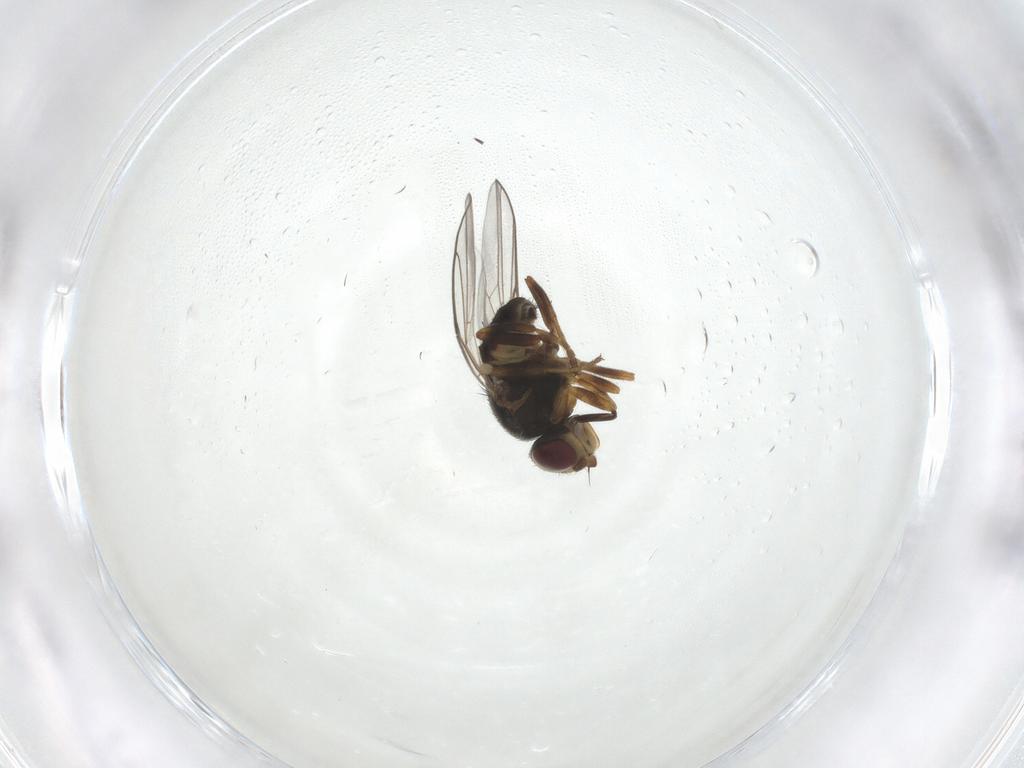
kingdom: Animalia
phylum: Arthropoda
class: Insecta
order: Diptera
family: Chloropidae
